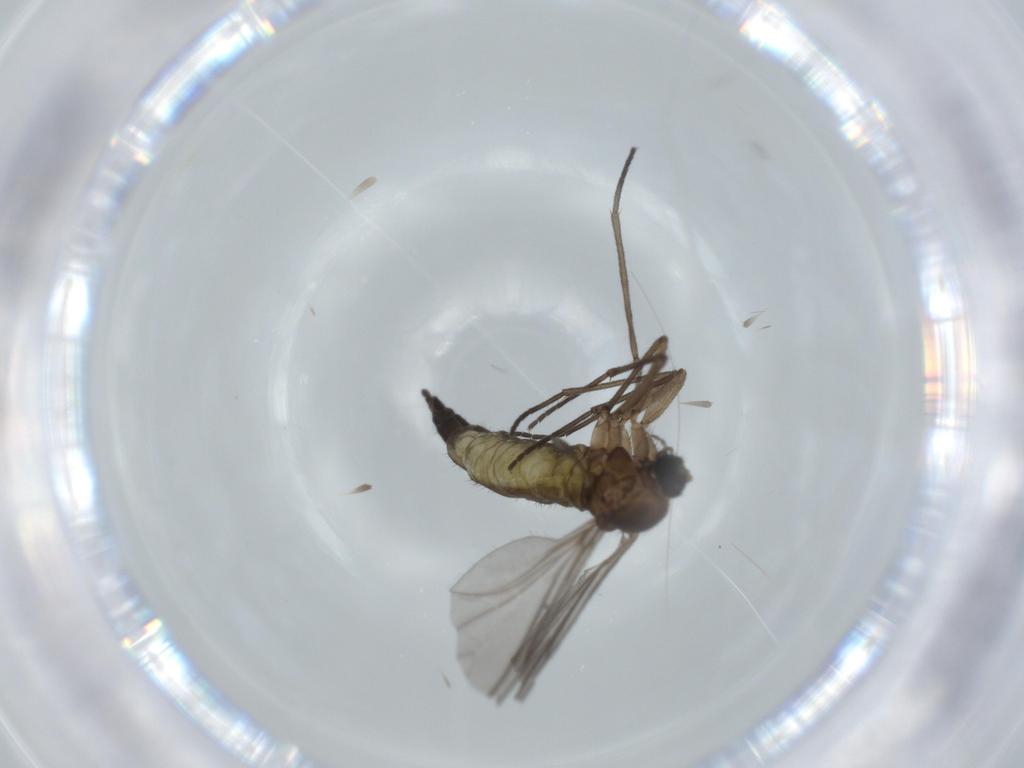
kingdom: Animalia
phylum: Arthropoda
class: Insecta
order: Diptera
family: Sciaridae
